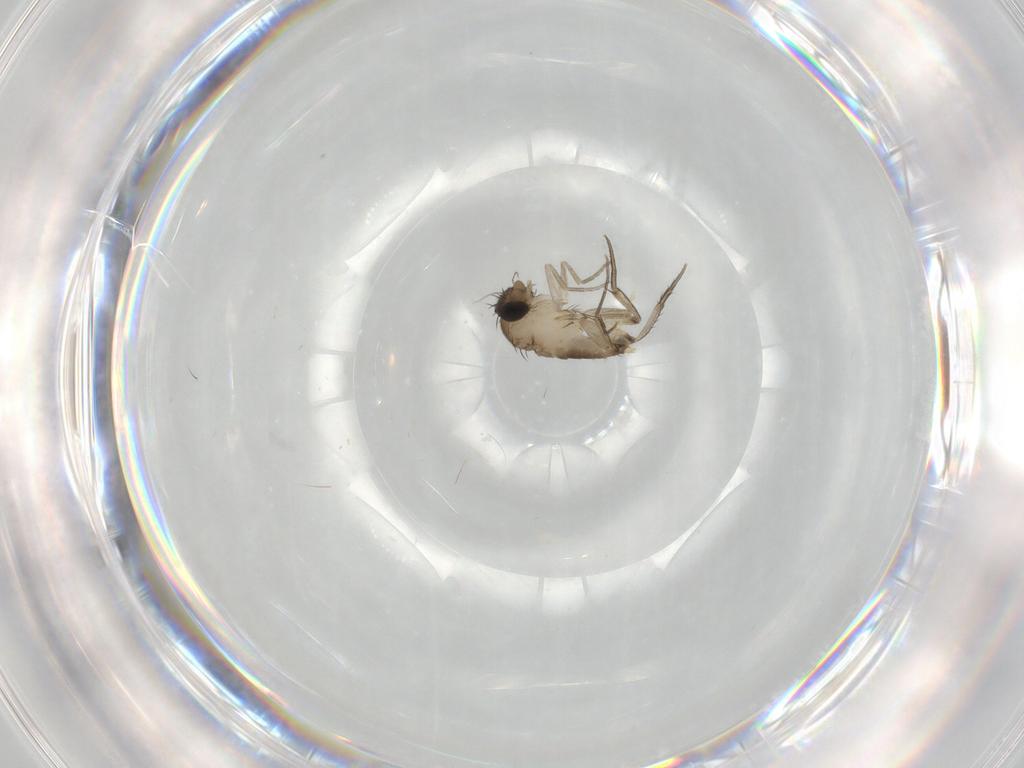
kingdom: Animalia
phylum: Arthropoda
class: Insecta
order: Diptera
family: Phoridae
